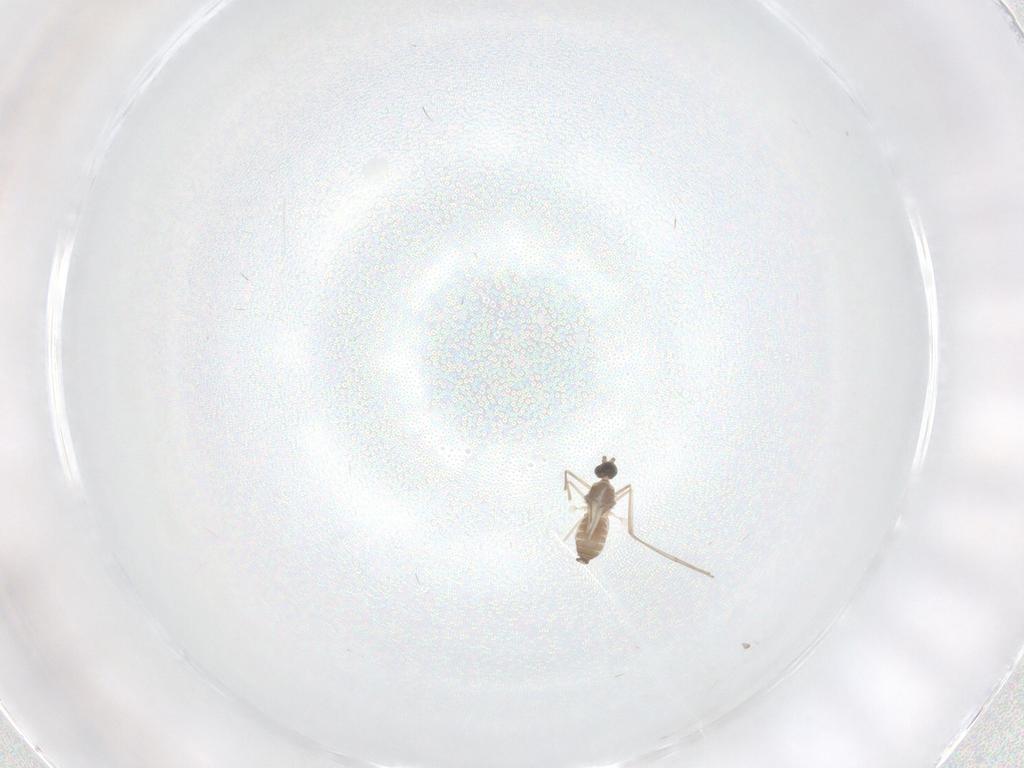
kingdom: Animalia
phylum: Arthropoda
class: Insecta
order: Diptera
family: Cecidomyiidae
